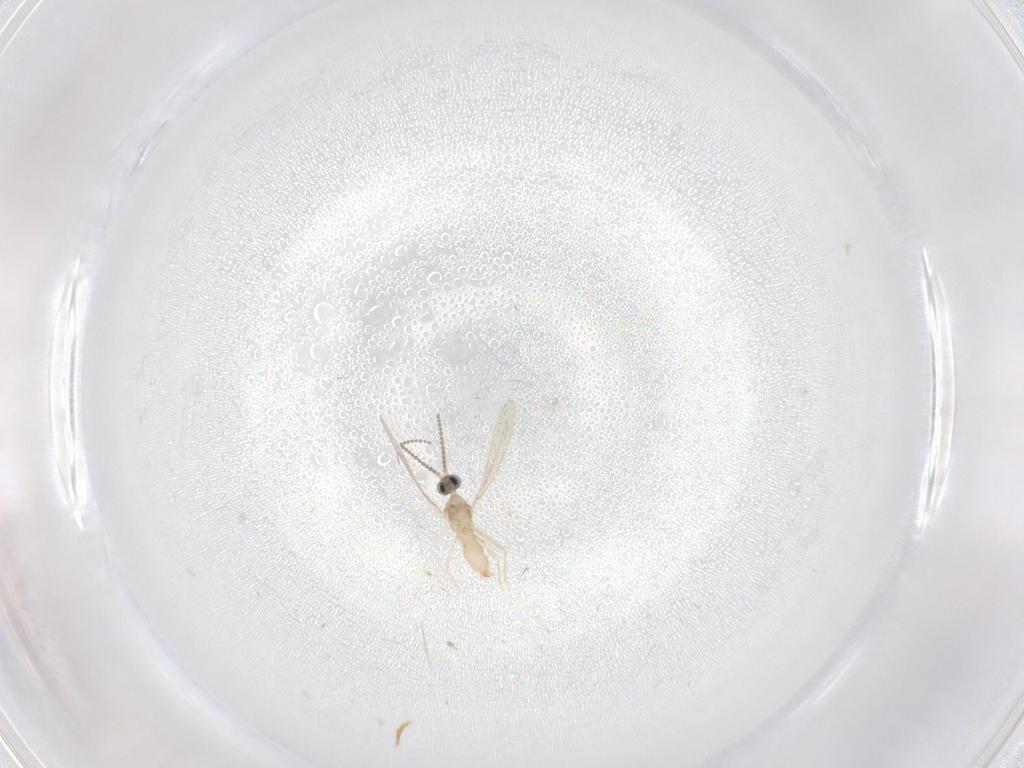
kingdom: Animalia
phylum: Arthropoda
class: Insecta
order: Diptera
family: Cecidomyiidae
